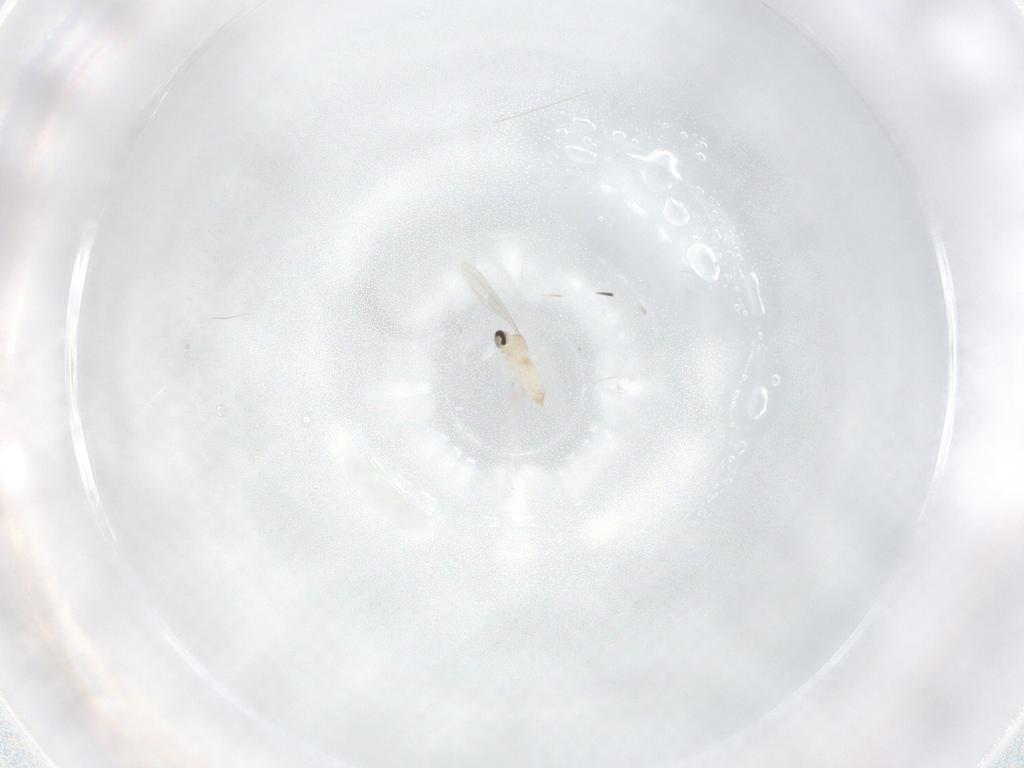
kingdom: Animalia
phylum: Arthropoda
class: Insecta
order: Diptera
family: Cecidomyiidae
